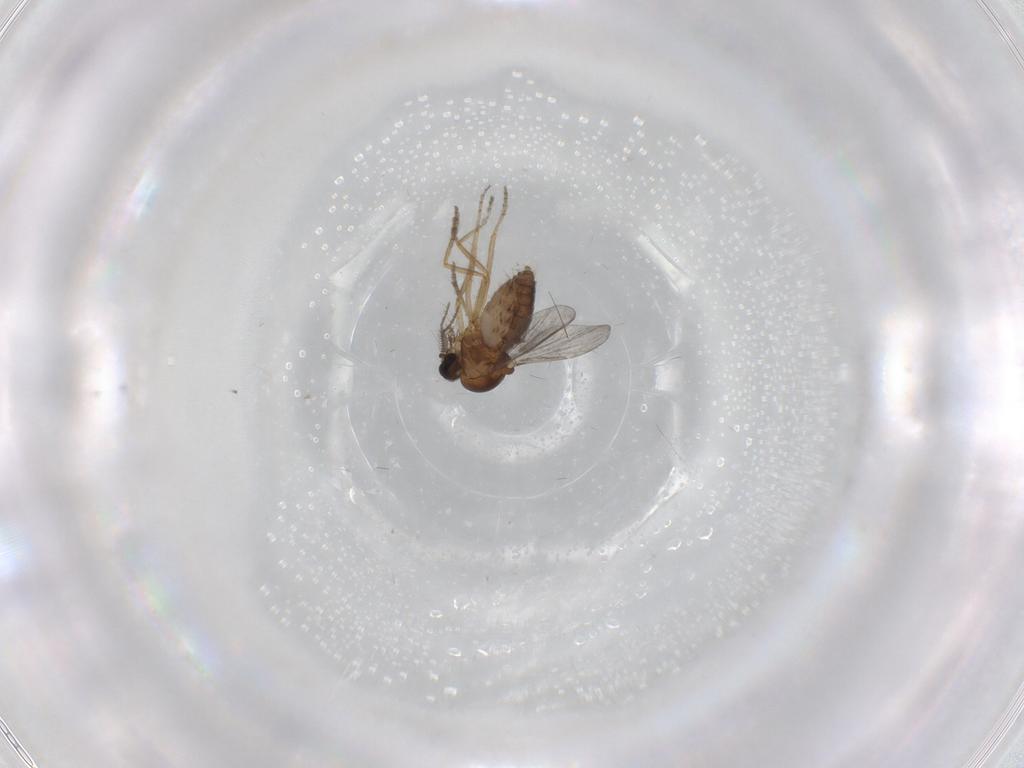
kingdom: Animalia
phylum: Arthropoda
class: Insecta
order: Diptera
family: Ceratopogonidae
